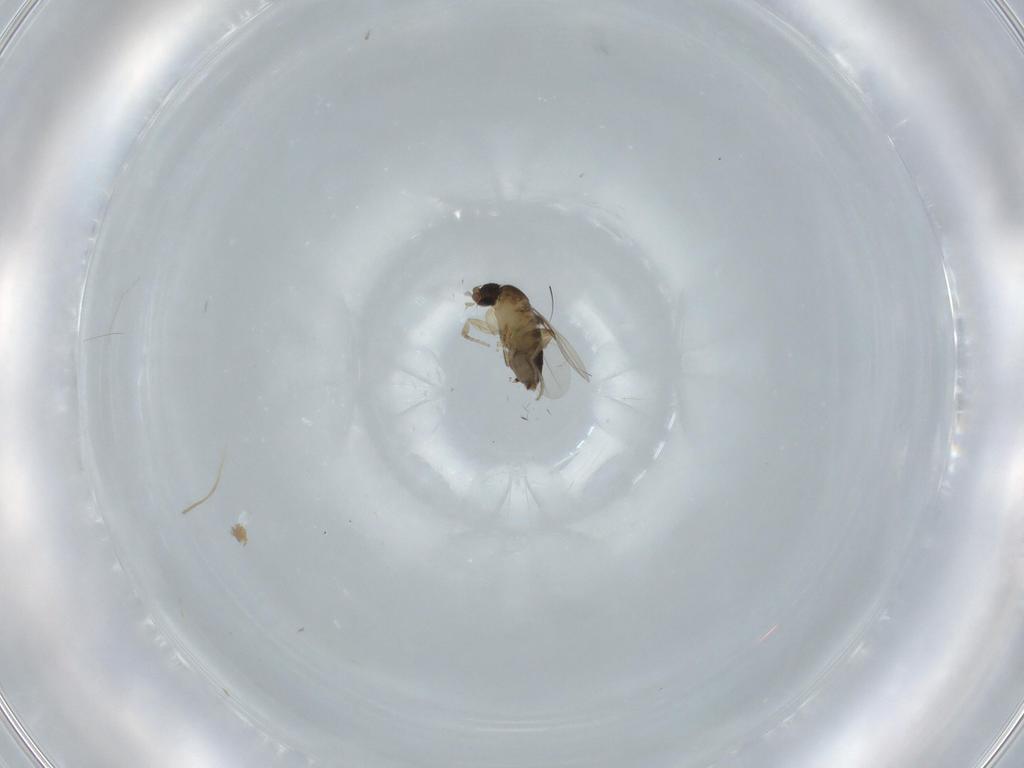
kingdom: Animalia
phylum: Arthropoda
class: Insecta
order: Diptera
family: Phoridae
